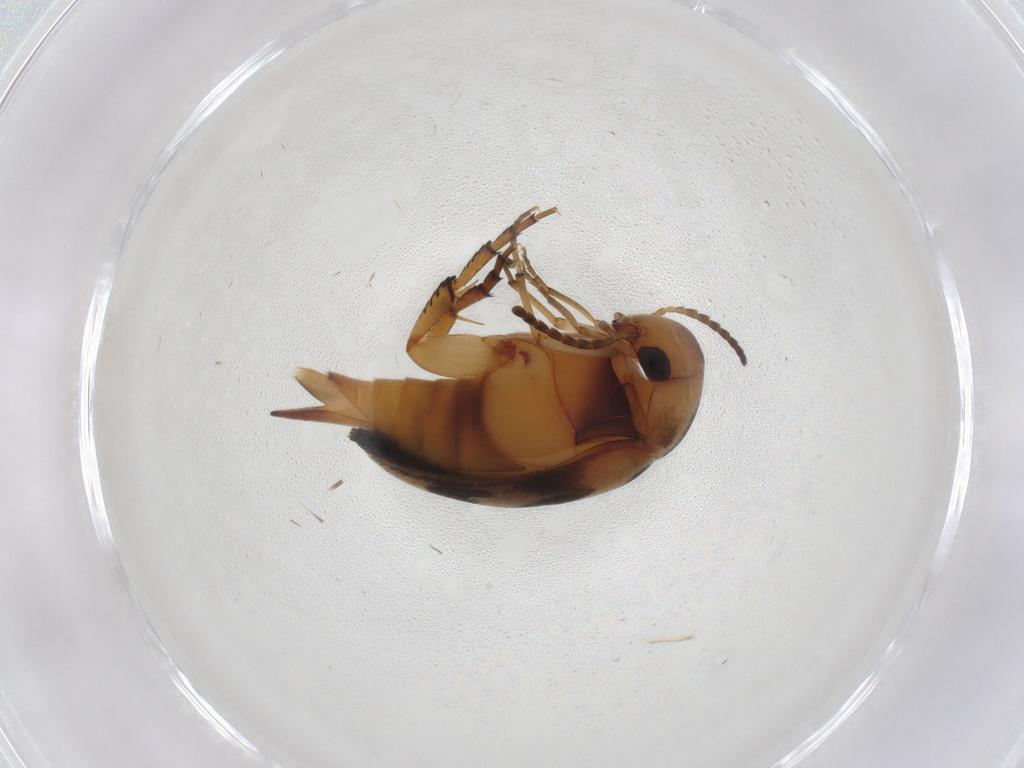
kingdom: Animalia
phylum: Arthropoda
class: Insecta
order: Coleoptera
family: Mordellidae
